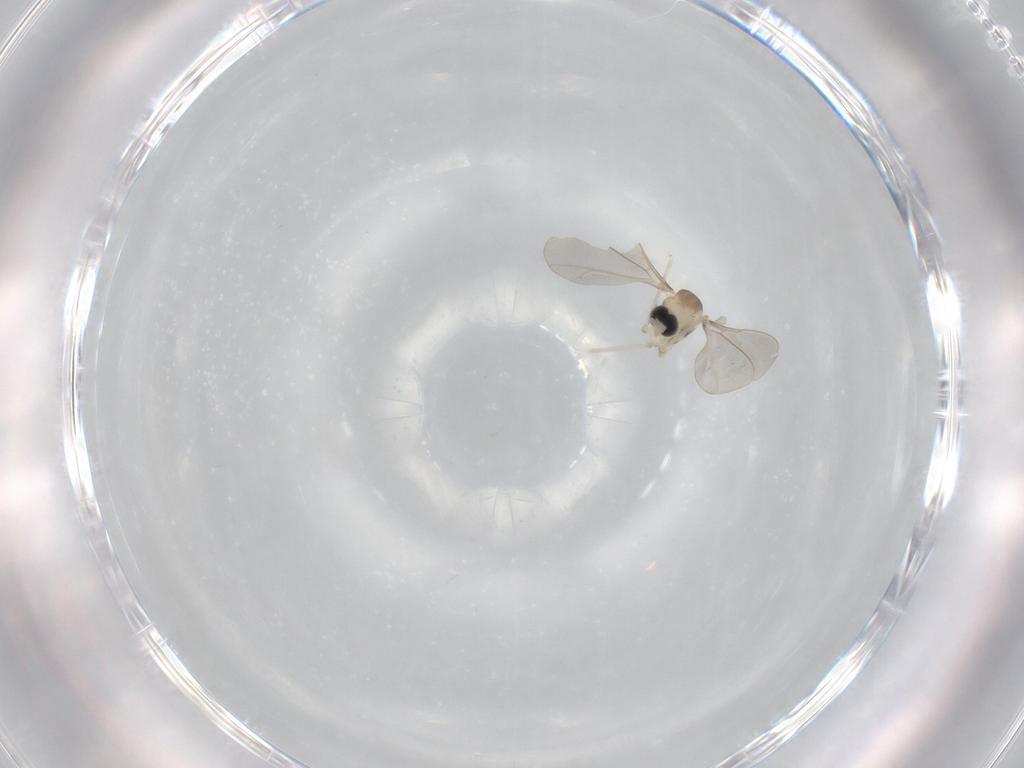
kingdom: Animalia
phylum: Arthropoda
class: Insecta
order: Diptera
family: Cecidomyiidae
